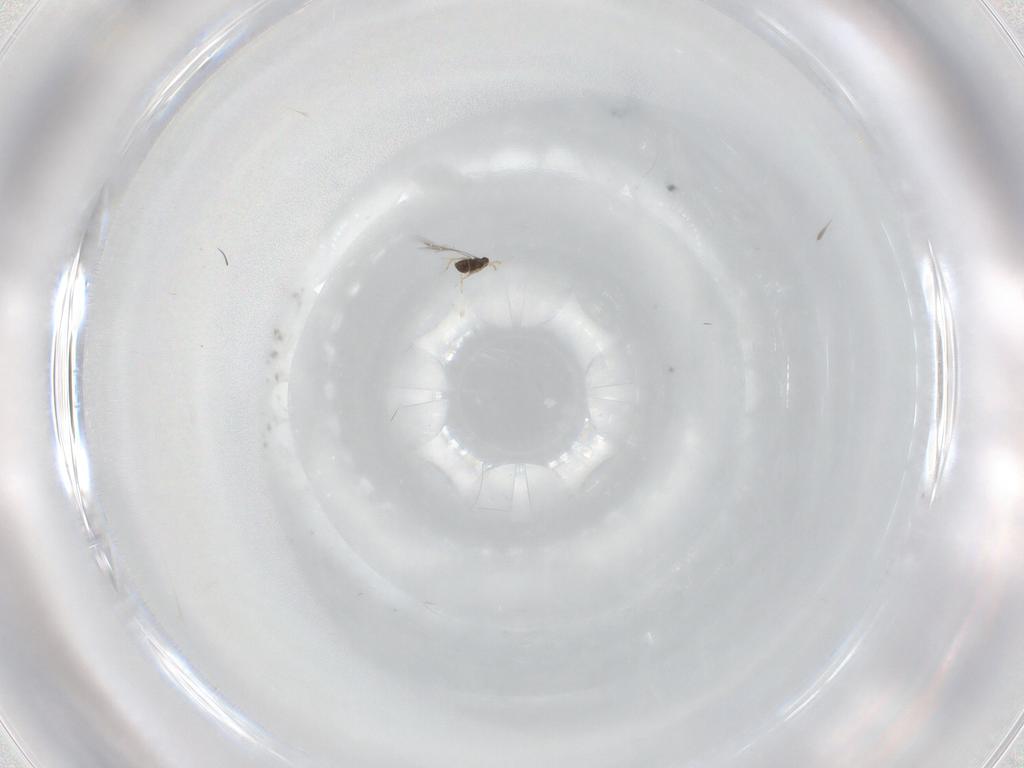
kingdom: Animalia
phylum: Arthropoda
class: Insecta
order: Hymenoptera
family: Mymaridae
